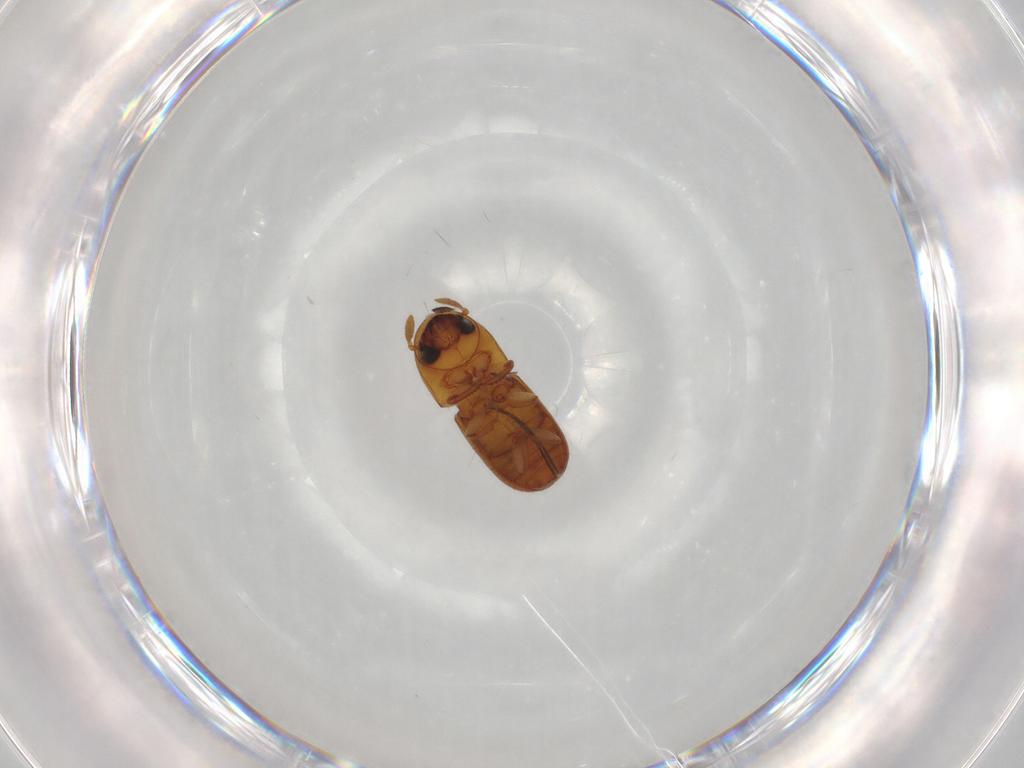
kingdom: Animalia
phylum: Arthropoda
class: Insecta
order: Coleoptera
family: Curculionidae
